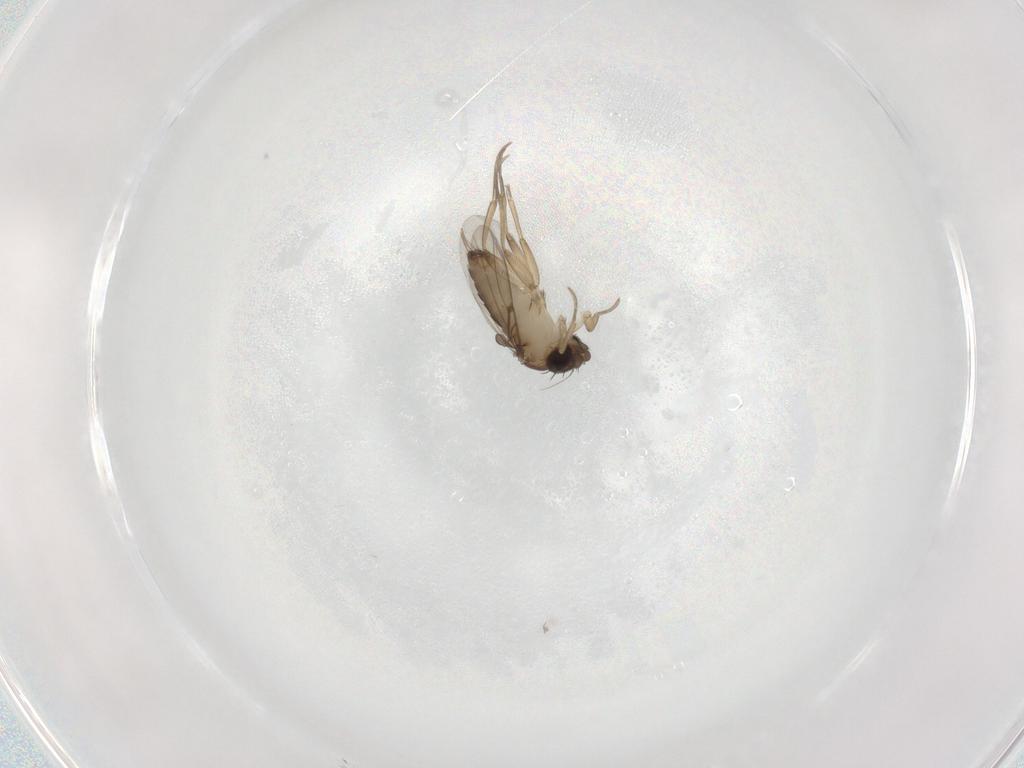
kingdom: Animalia
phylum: Arthropoda
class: Insecta
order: Diptera
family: Phoridae
